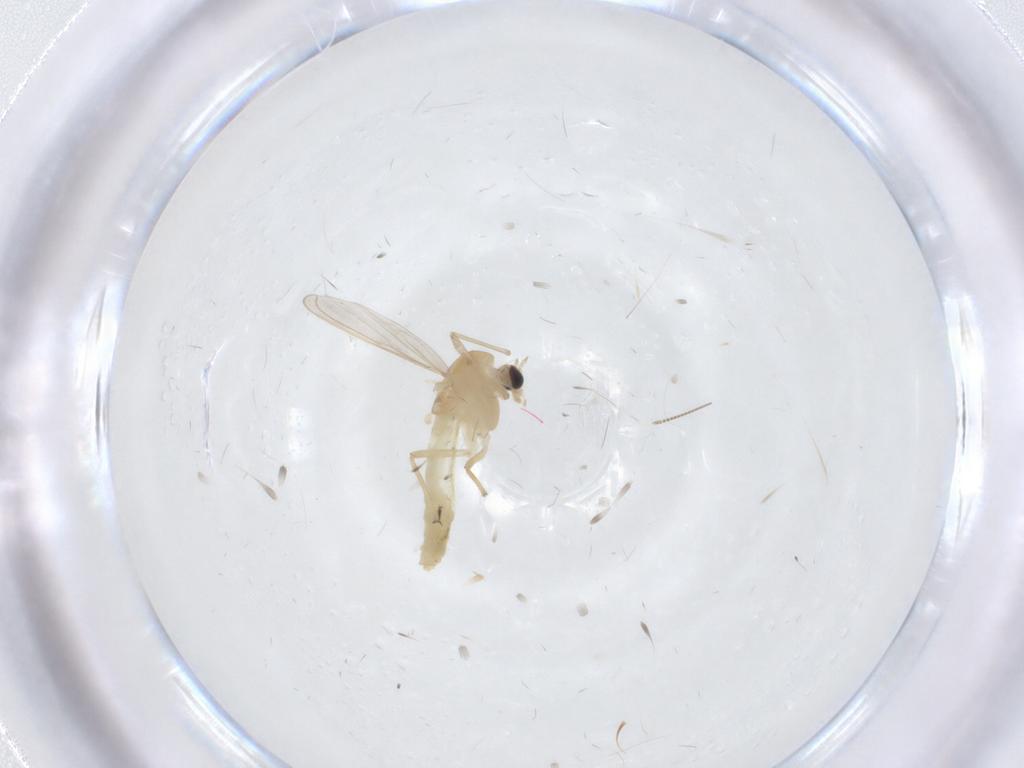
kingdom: Animalia
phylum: Arthropoda
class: Insecta
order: Diptera
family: Chironomidae
